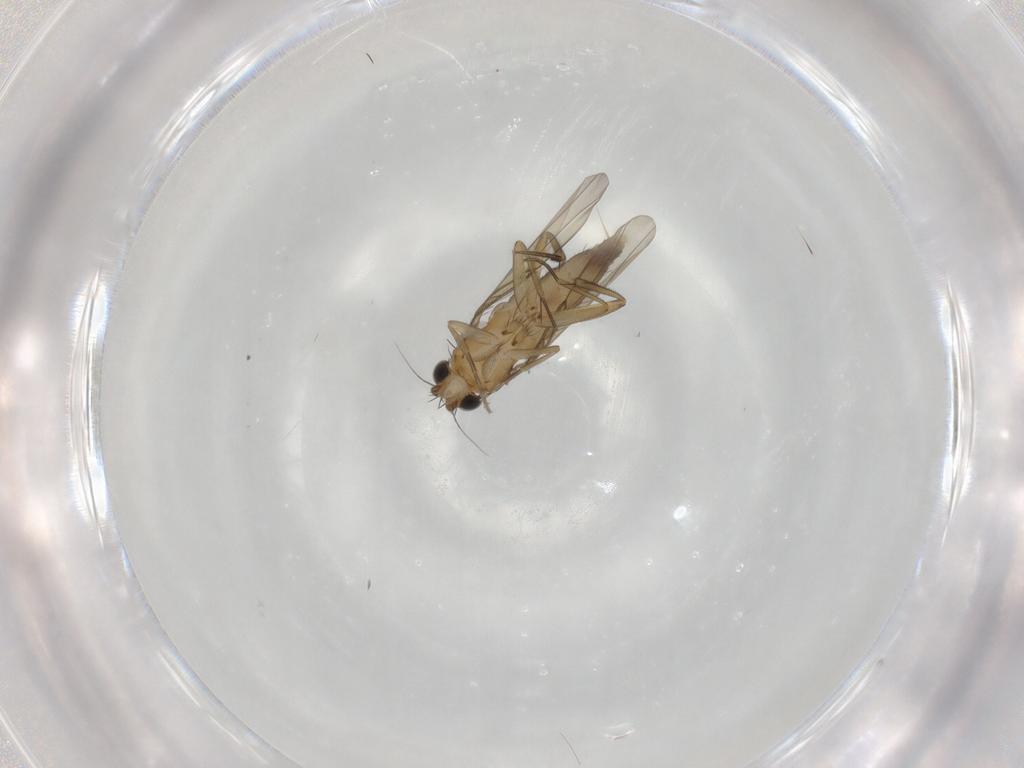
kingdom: Animalia
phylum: Arthropoda
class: Insecta
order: Diptera
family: Phoridae
